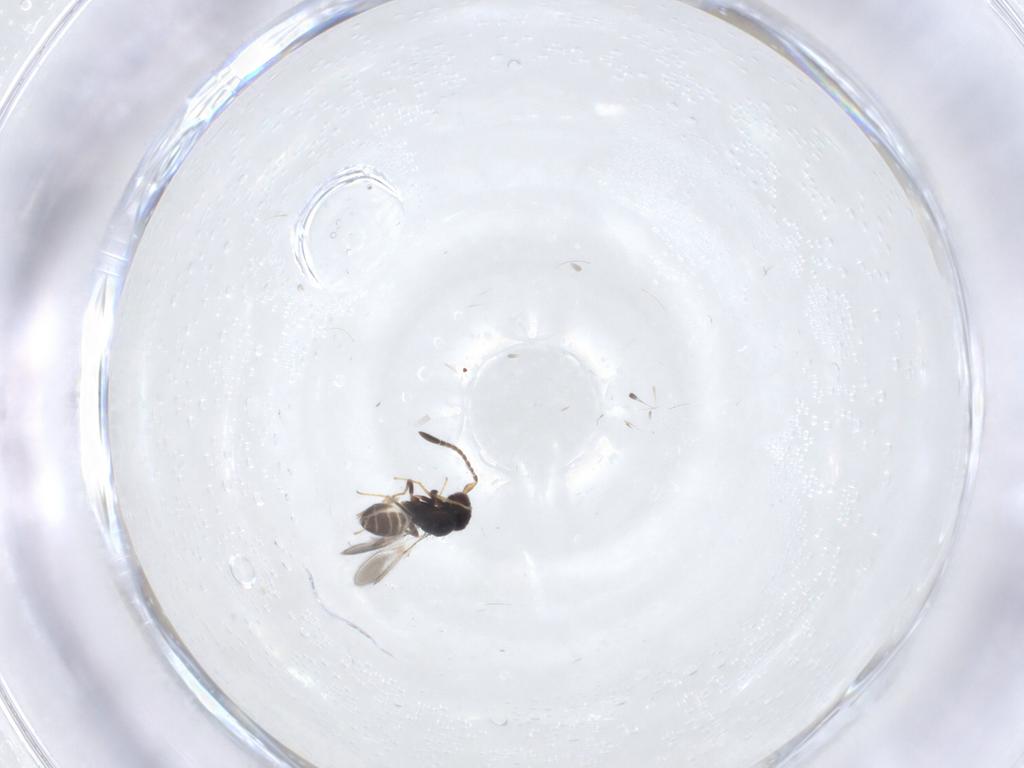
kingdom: Animalia
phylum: Arthropoda
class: Insecta
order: Hymenoptera
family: Mymaridae
